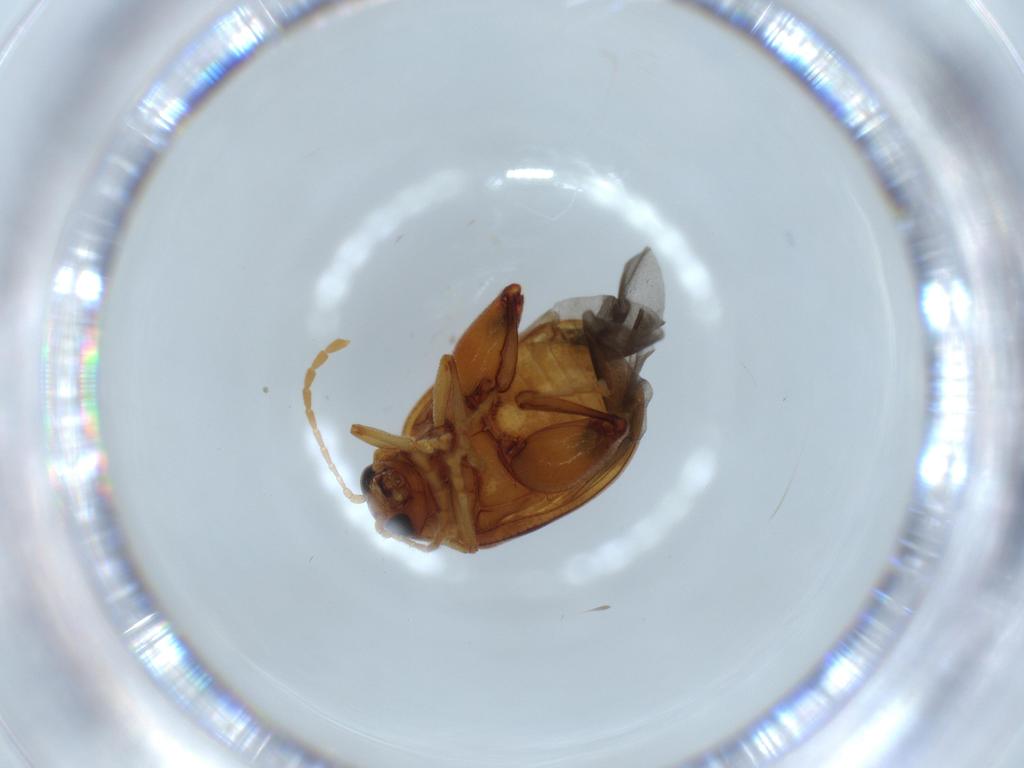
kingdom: Animalia
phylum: Arthropoda
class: Insecta
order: Coleoptera
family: Chrysomelidae
